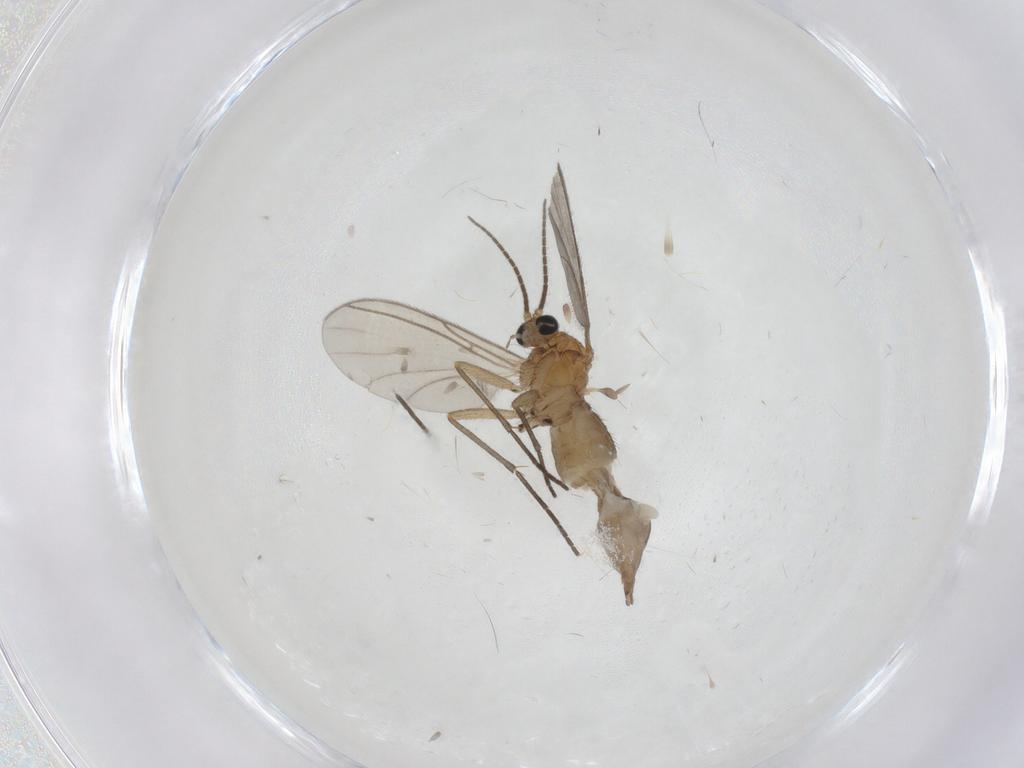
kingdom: Animalia
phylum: Arthropoda
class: Insecta
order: Diptera
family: Sciaridae
